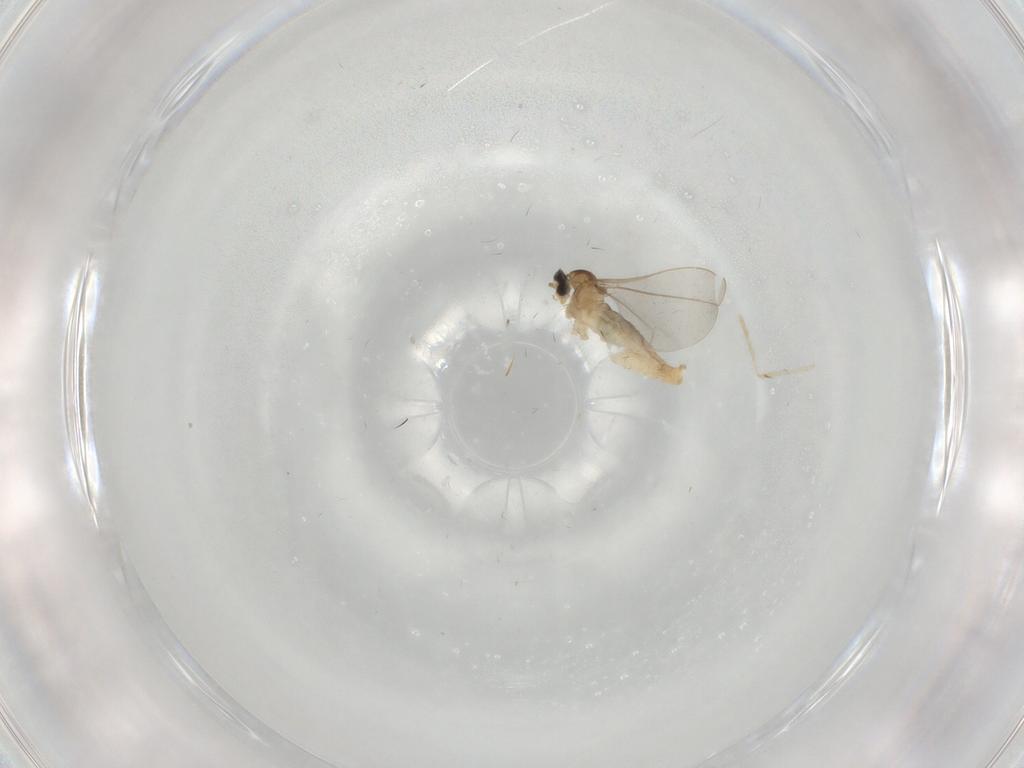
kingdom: Animalia
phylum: Arthropoda
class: Insecta
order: Diptera
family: Cecidomyiidae
